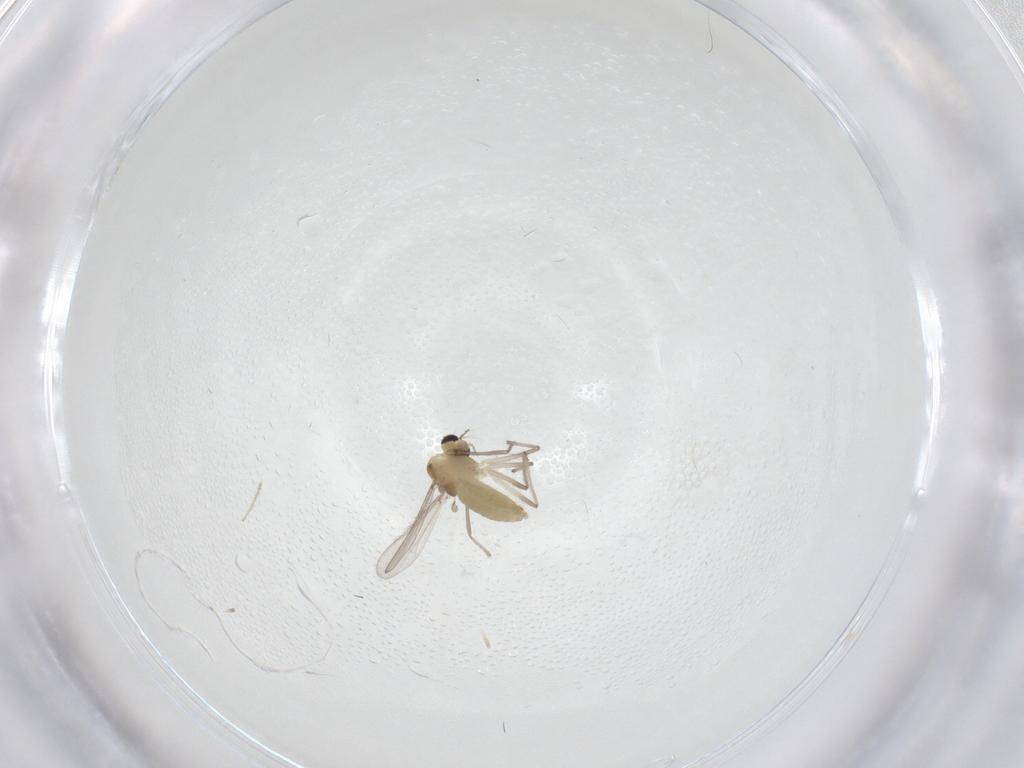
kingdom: Animalia
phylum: Arthropoda
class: Insecta
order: Diptera
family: Chironomidae
